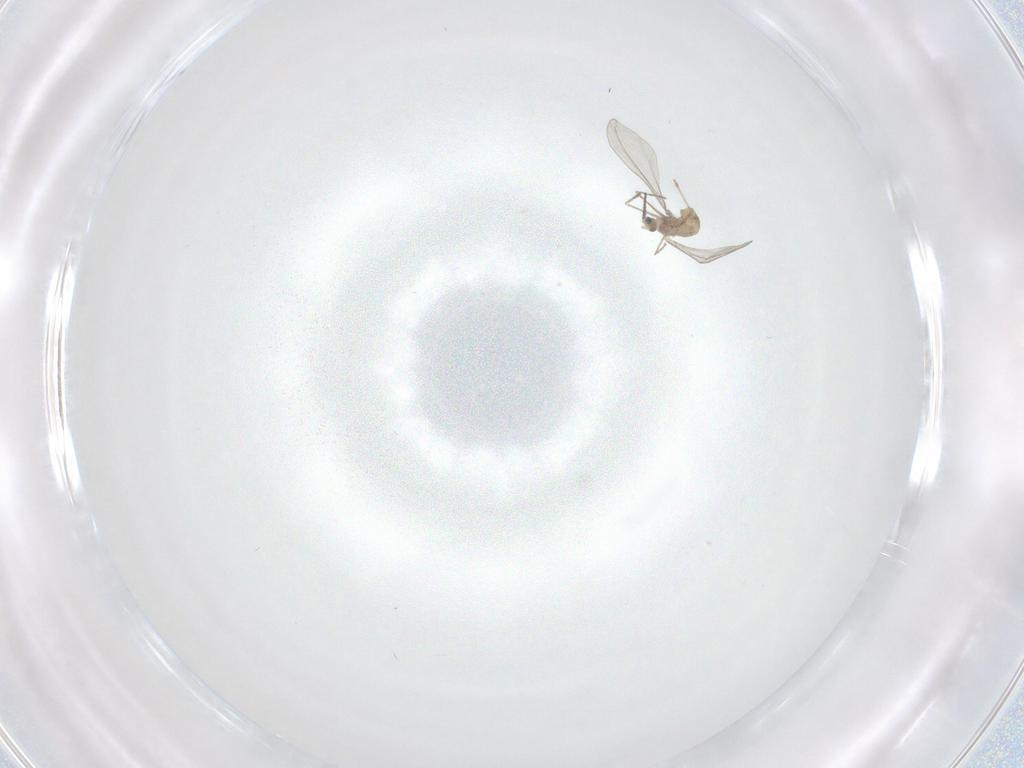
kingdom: Animalia
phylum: Arthropoda
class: Insecta
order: Diptera
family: Cecidomyiidae
